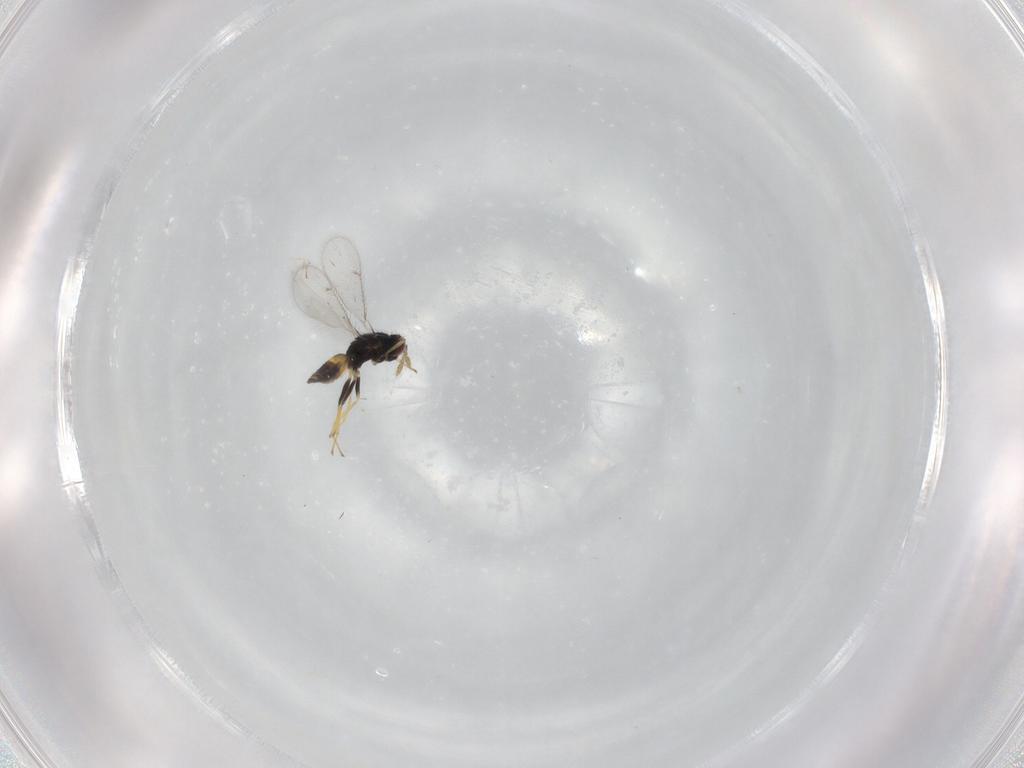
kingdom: Animalia
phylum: Arthropoda
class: Insecta
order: Hymenoptera
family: Eulophidae
